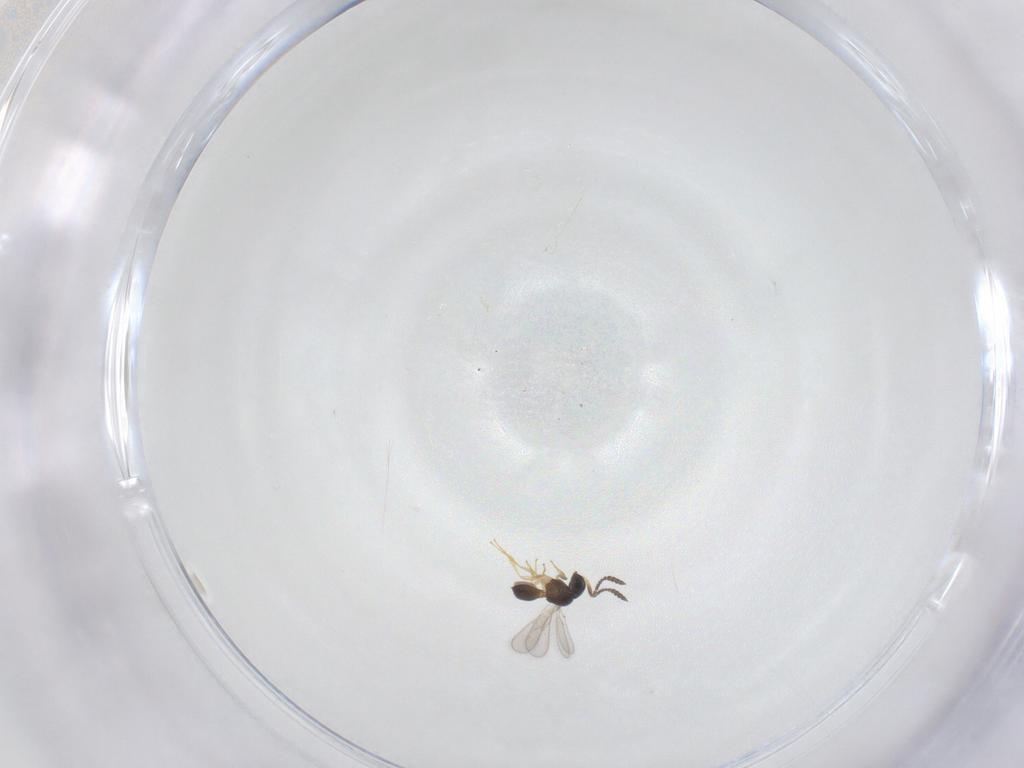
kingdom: Animalia
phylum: Arthropoda
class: Insecta
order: Hymenoptera
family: Scelionidae
